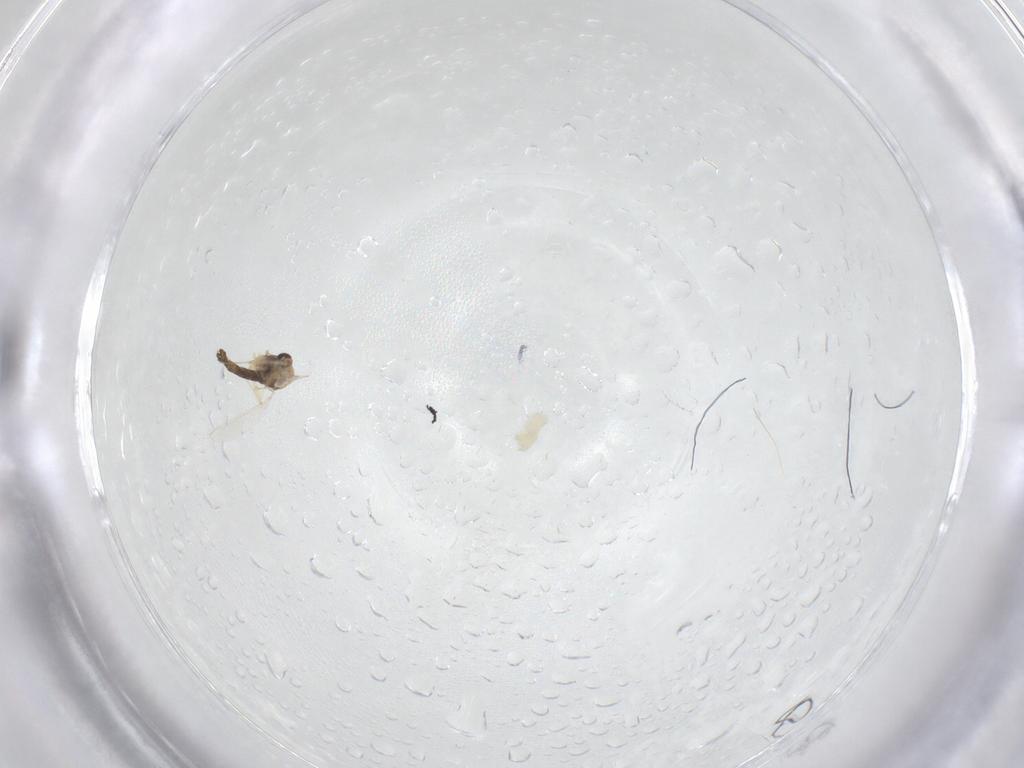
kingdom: Animalia
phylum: Arthropoda
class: Insecta
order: Diptera
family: Chironomidae
